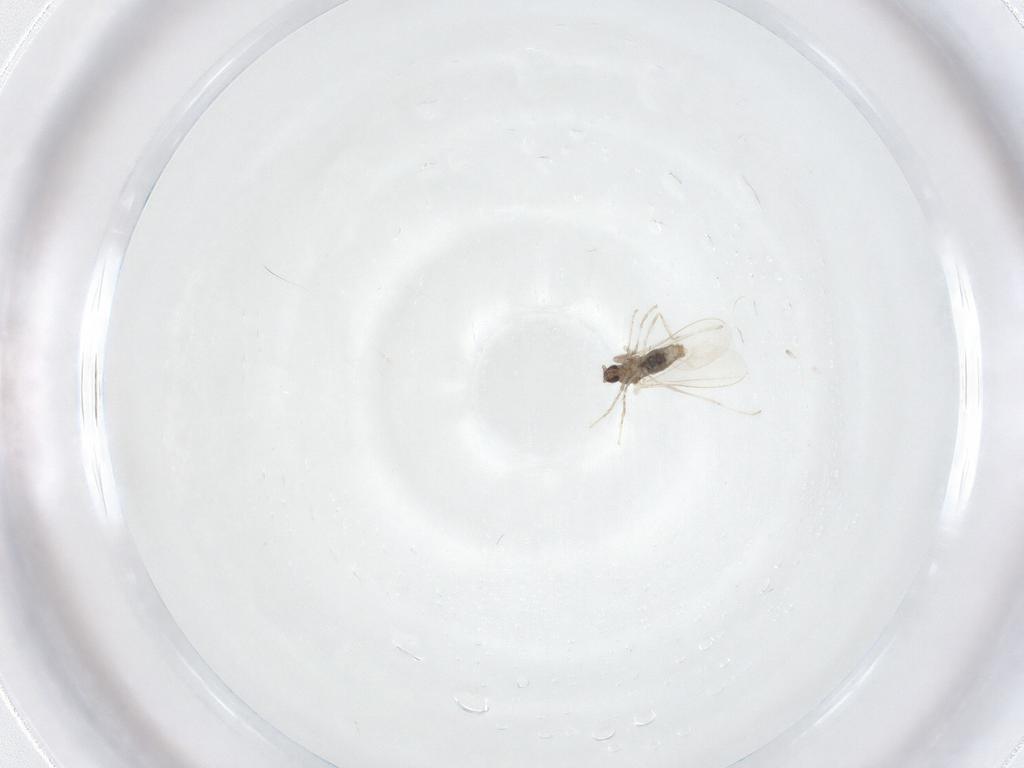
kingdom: Animalia
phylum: Arthropoda
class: Insecta
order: Diptera
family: Cecidomyiidae
